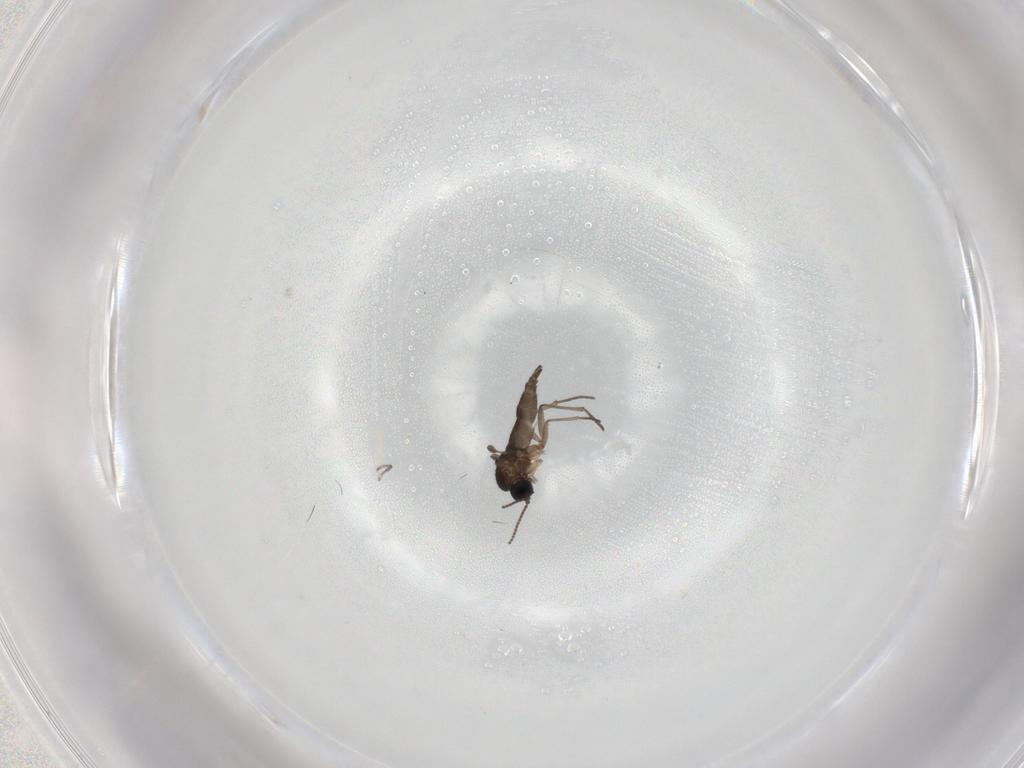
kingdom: Animalia
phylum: Arthropoda
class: Insecta
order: Diptera
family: Sciaridae
